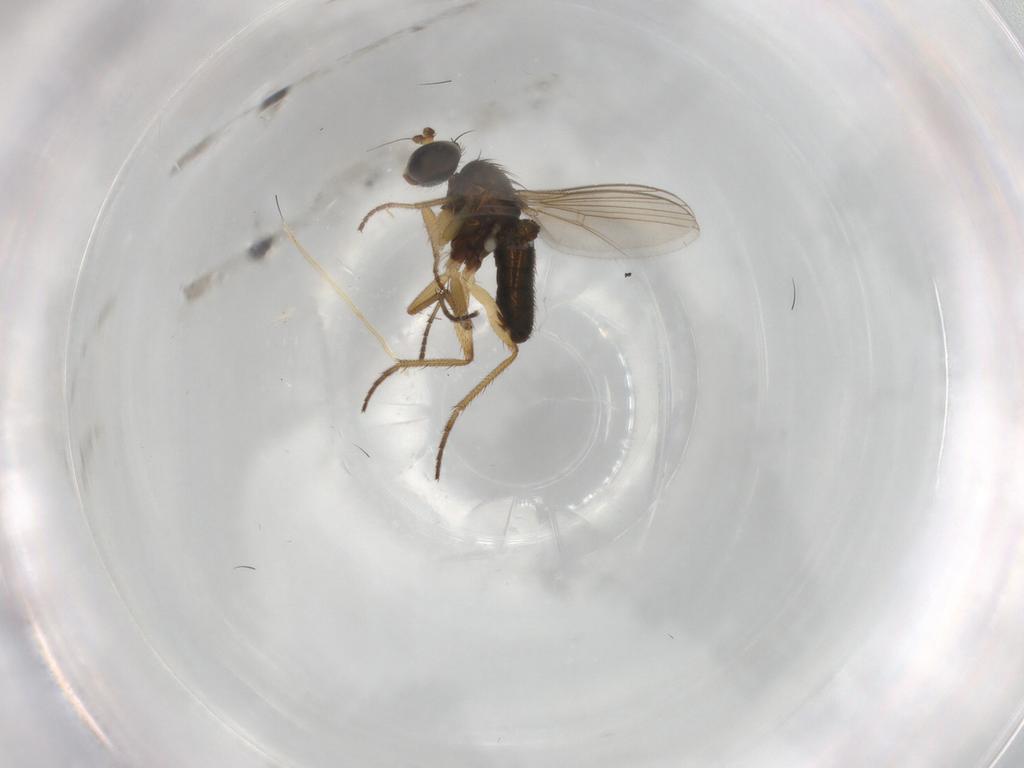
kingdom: Animalia
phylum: Arthropoda
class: Insecta
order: Diptera
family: Dolichopodidae
